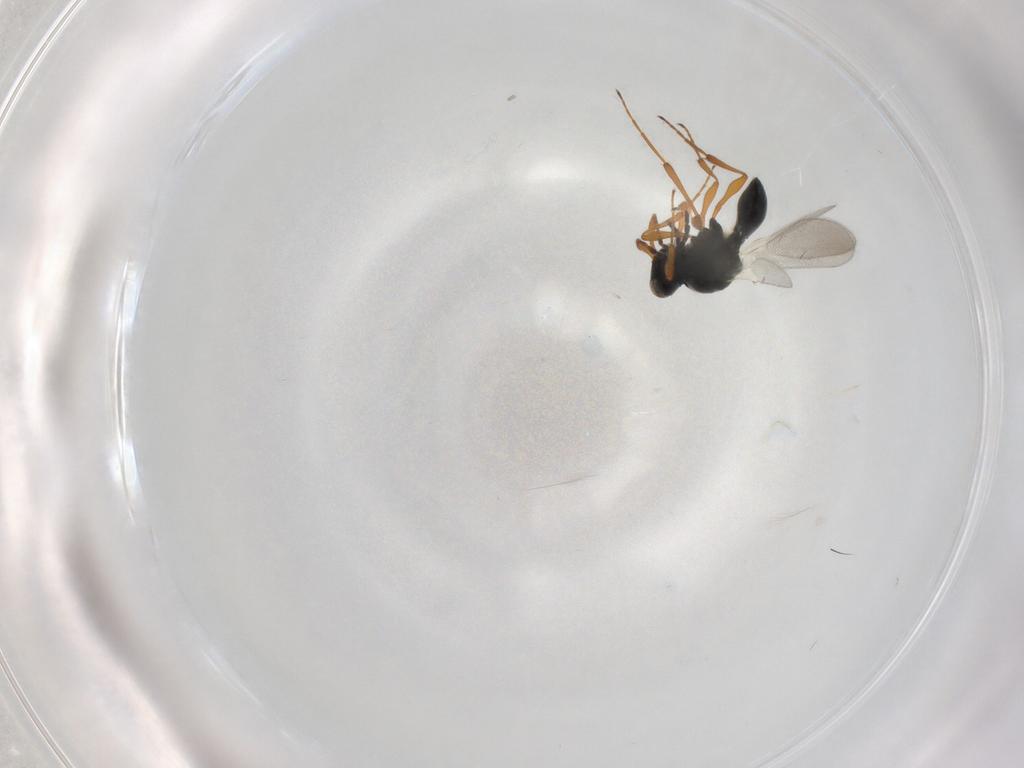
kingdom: Animalia
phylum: Arthropoda
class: Insecta
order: Hymenoptera
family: Platygastridae
